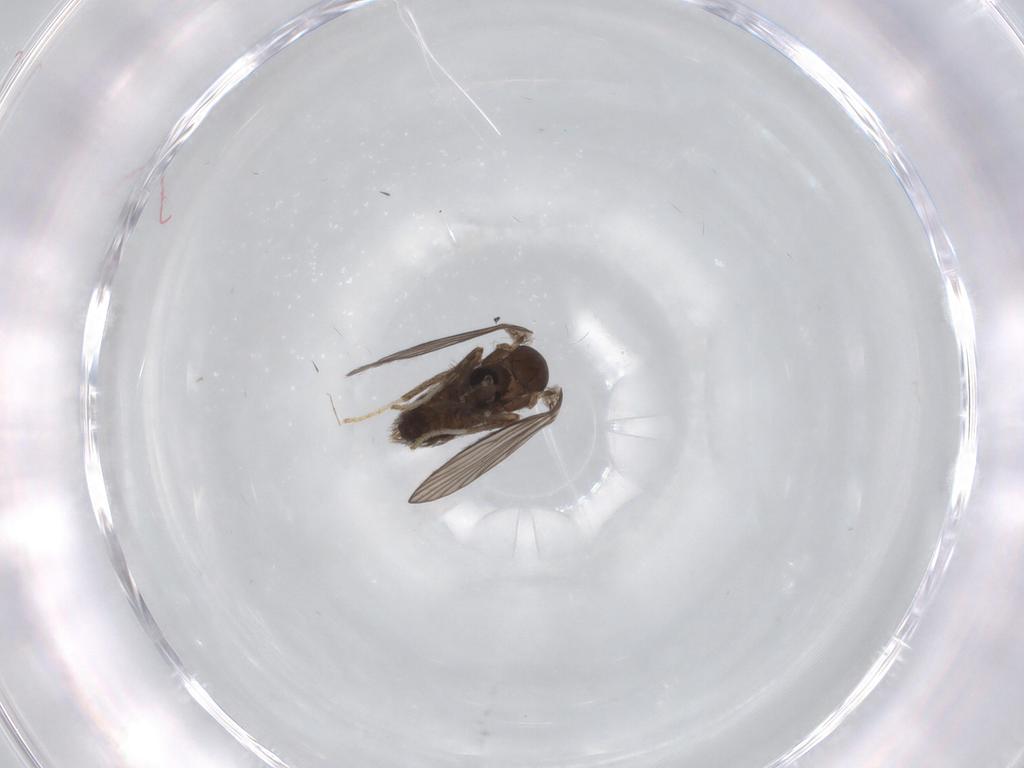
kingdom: Animalia
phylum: Arthropoda
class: Insecta
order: Diptera
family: Psychodidae
